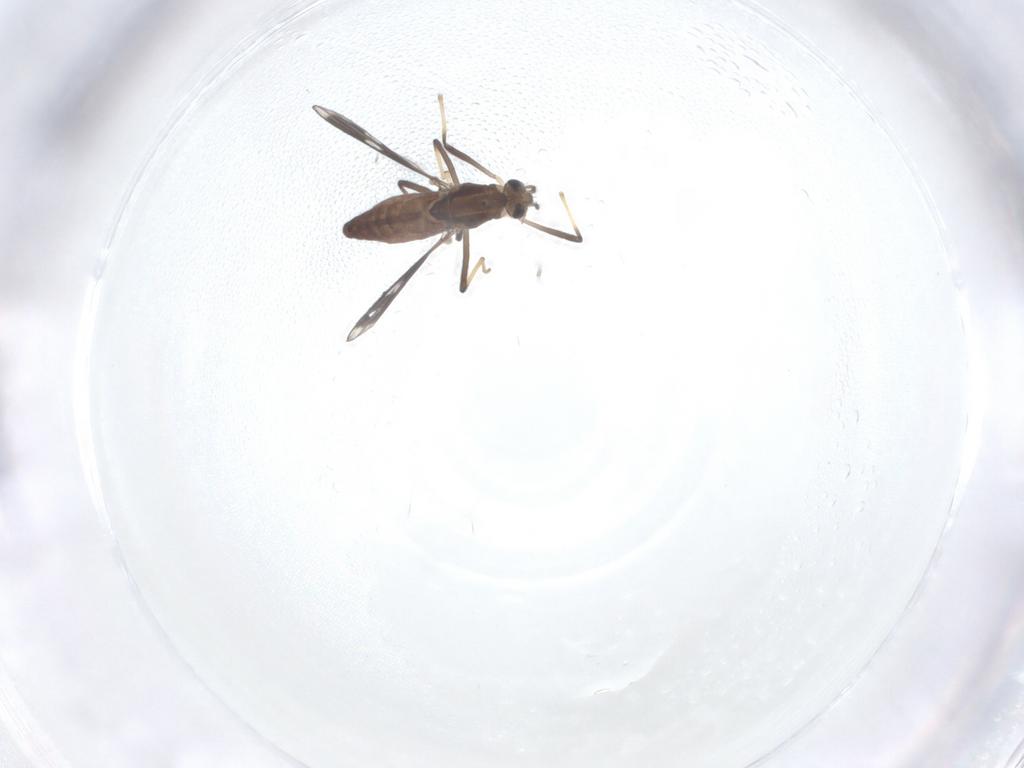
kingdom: Animalia
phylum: Arthropoda
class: Insecta
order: Diptera
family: Chironomidae
